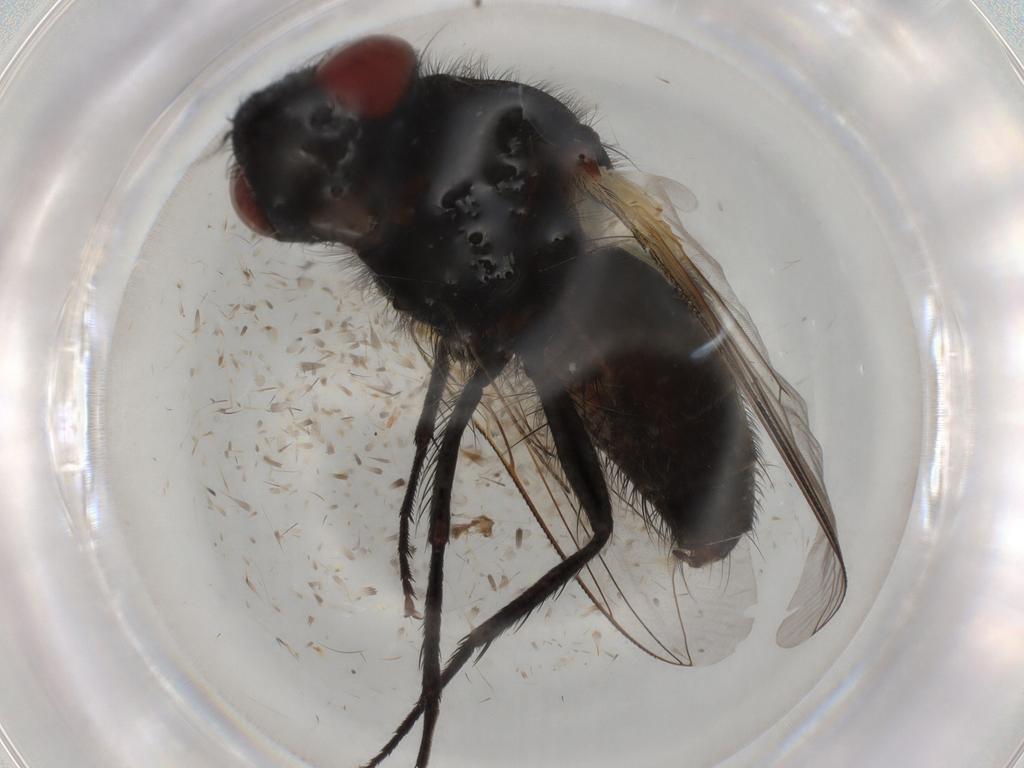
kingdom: Animalia
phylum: Arthropoda
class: Insecta
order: Diptera
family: Sarcophagidae
